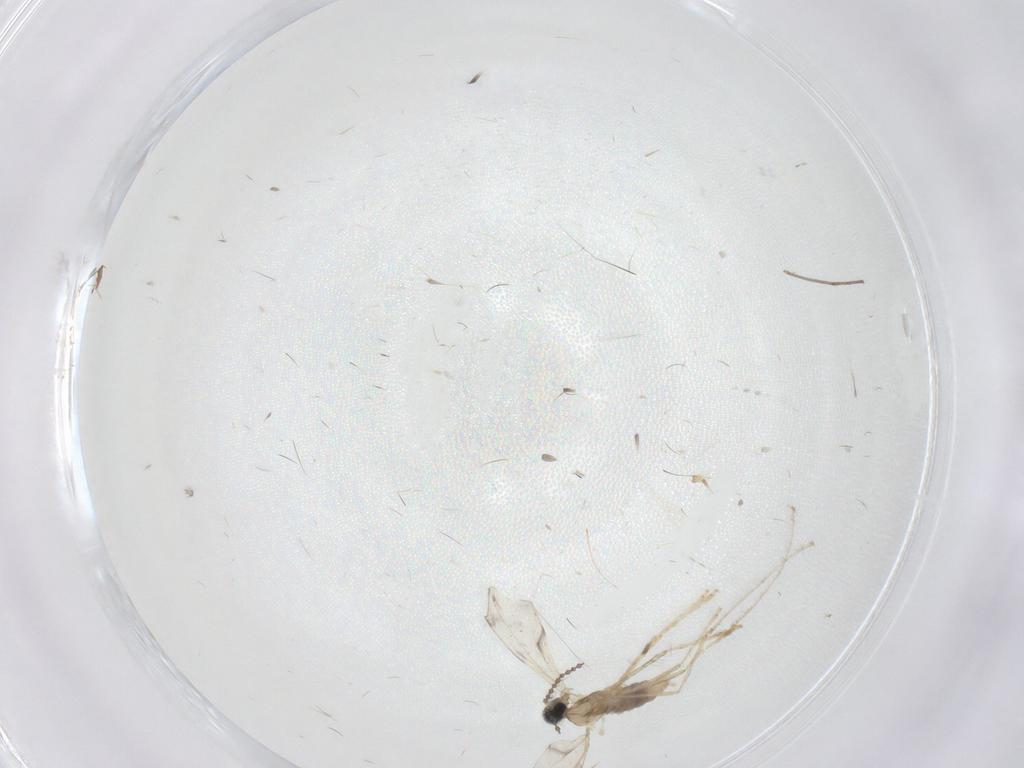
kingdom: Animalia
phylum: Arthropoda
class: Insecta
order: Diptera
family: Cecidomyiidae
